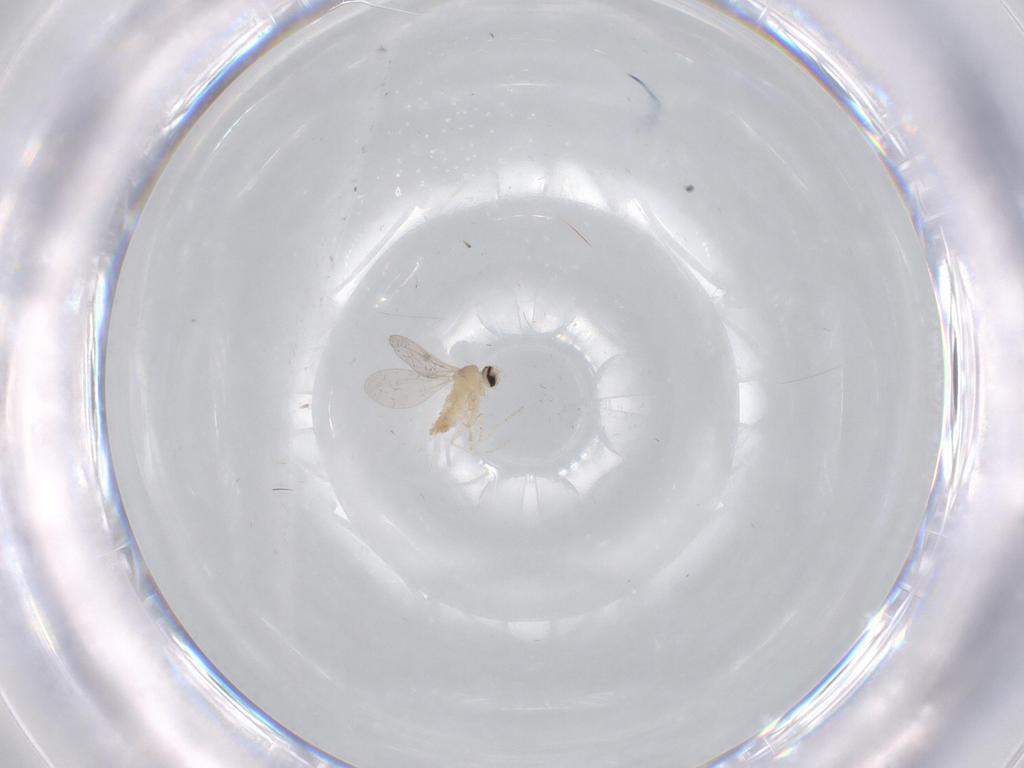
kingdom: Animalia
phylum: Arthropoda
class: Insecta
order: Diptera
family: Cecidomyiidae
